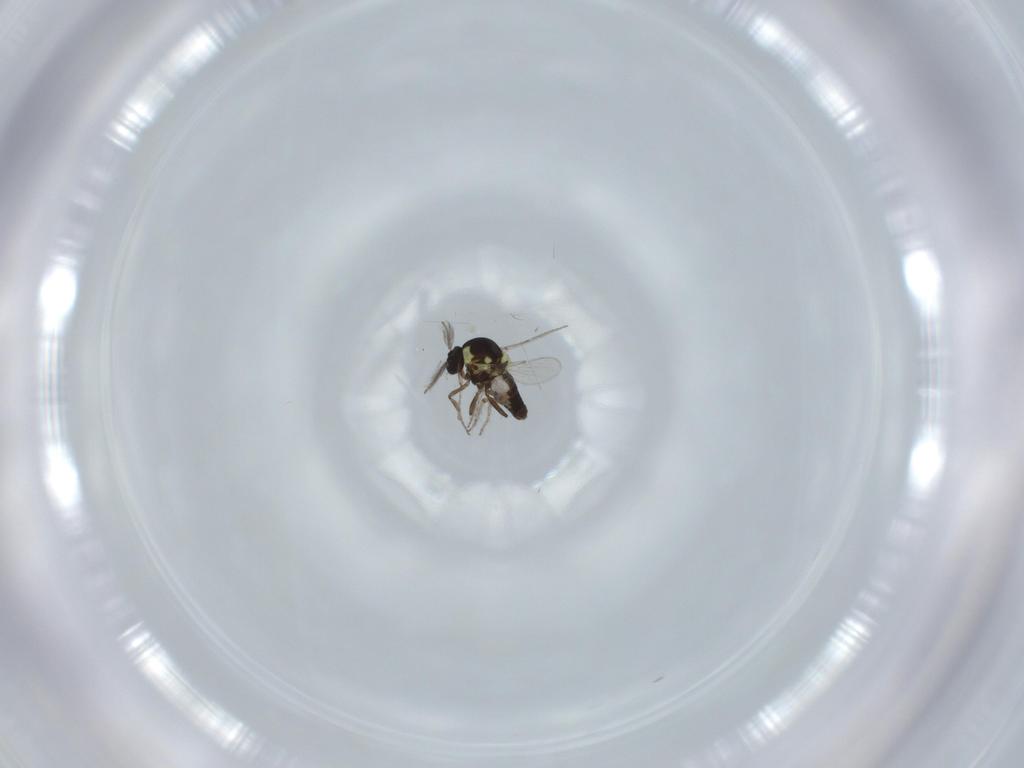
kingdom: Animalia
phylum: Arthropoda
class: Insecta
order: Diptera
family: Ceratopogonidae
